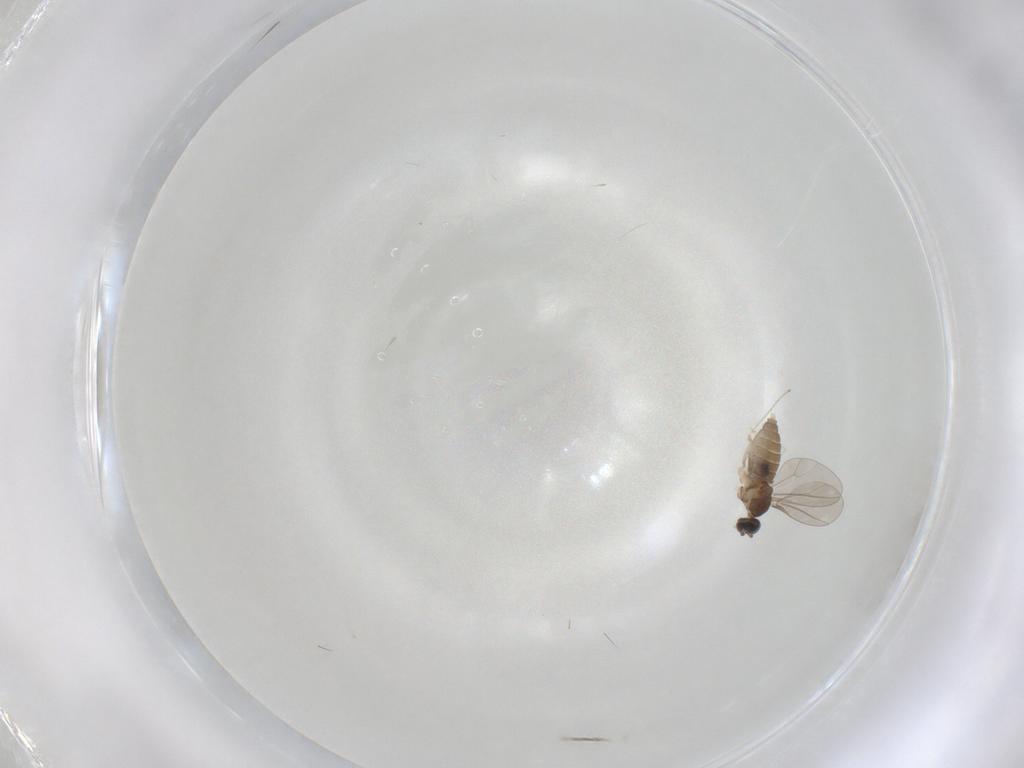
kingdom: Animalia
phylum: Arthropoda
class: Insecta
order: Diptera
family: Cecidomyiidae
